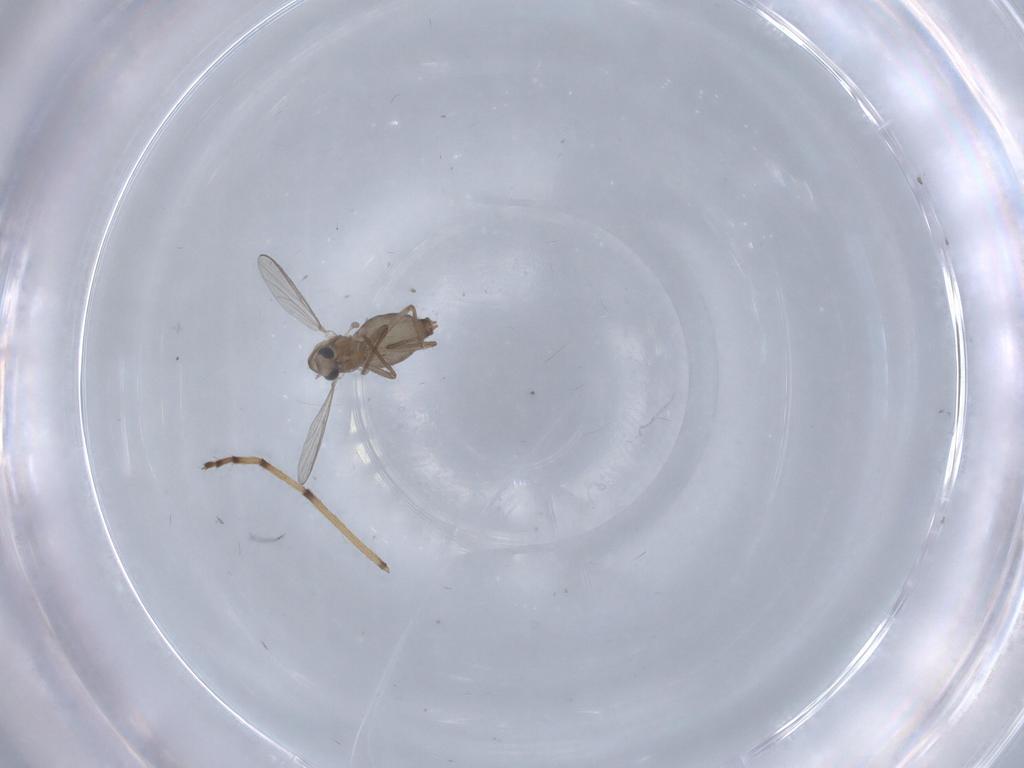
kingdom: Animalia
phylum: Arthropoda
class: Insecta
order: Diptera
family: Chironomidae
